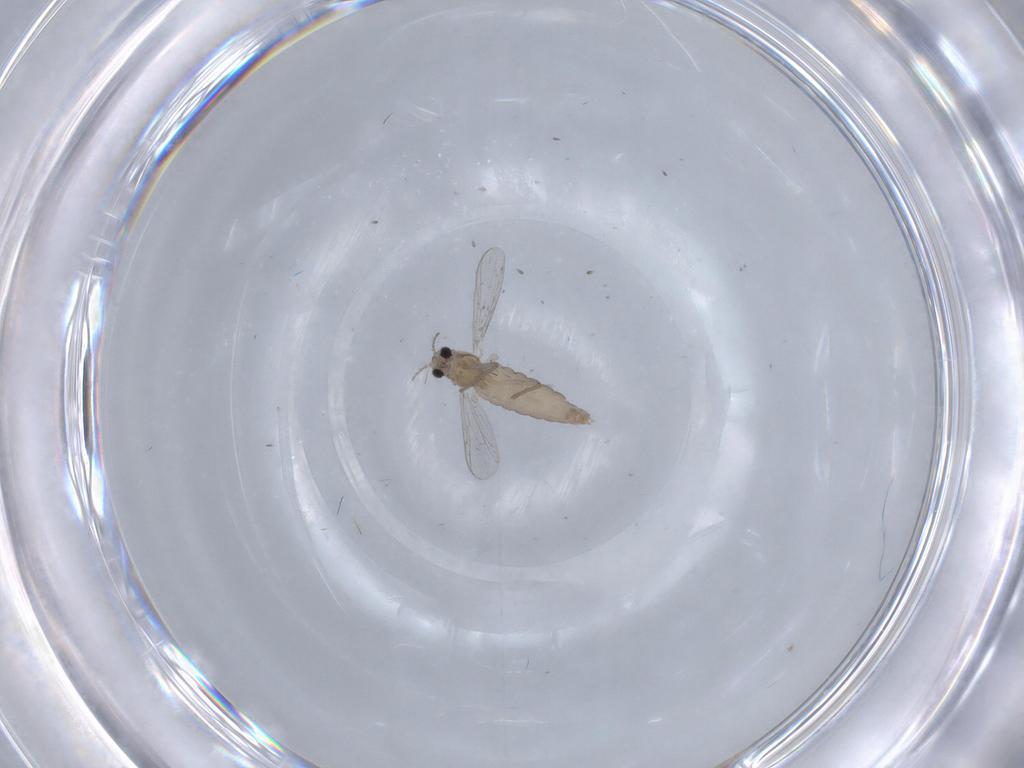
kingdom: Animalia
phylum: Arthropoda
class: Insecta
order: Diptera
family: Chironomidae
